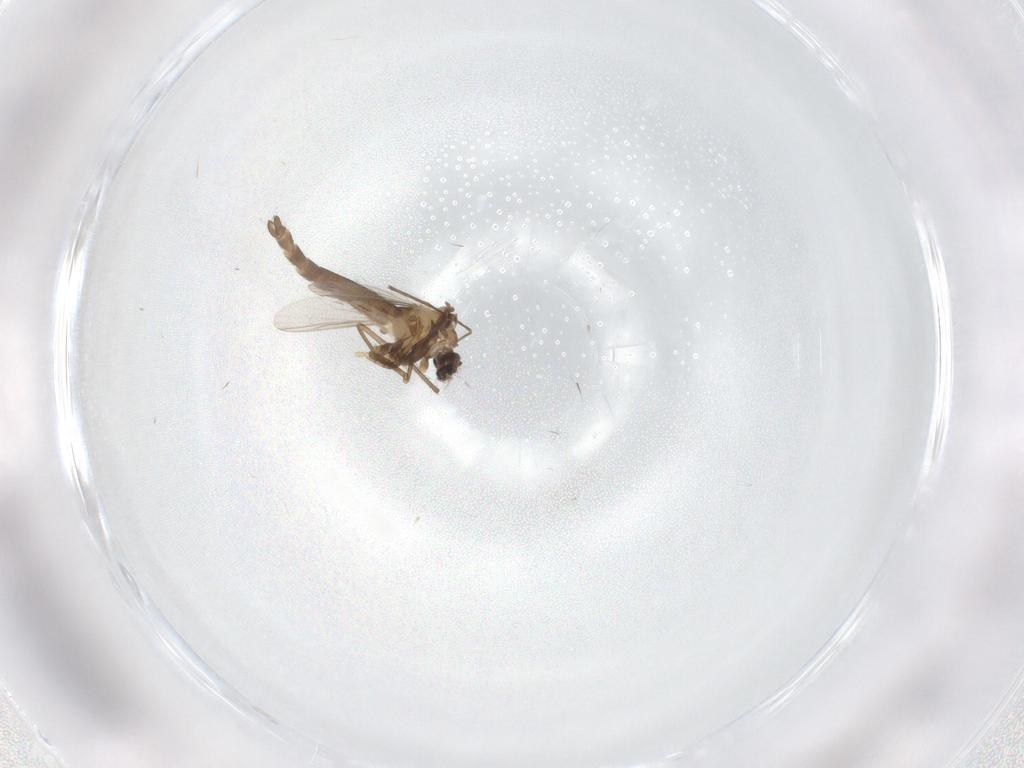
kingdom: Animalia
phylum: Arthropoda
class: Insecta
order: Diptera
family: Chironomidae
